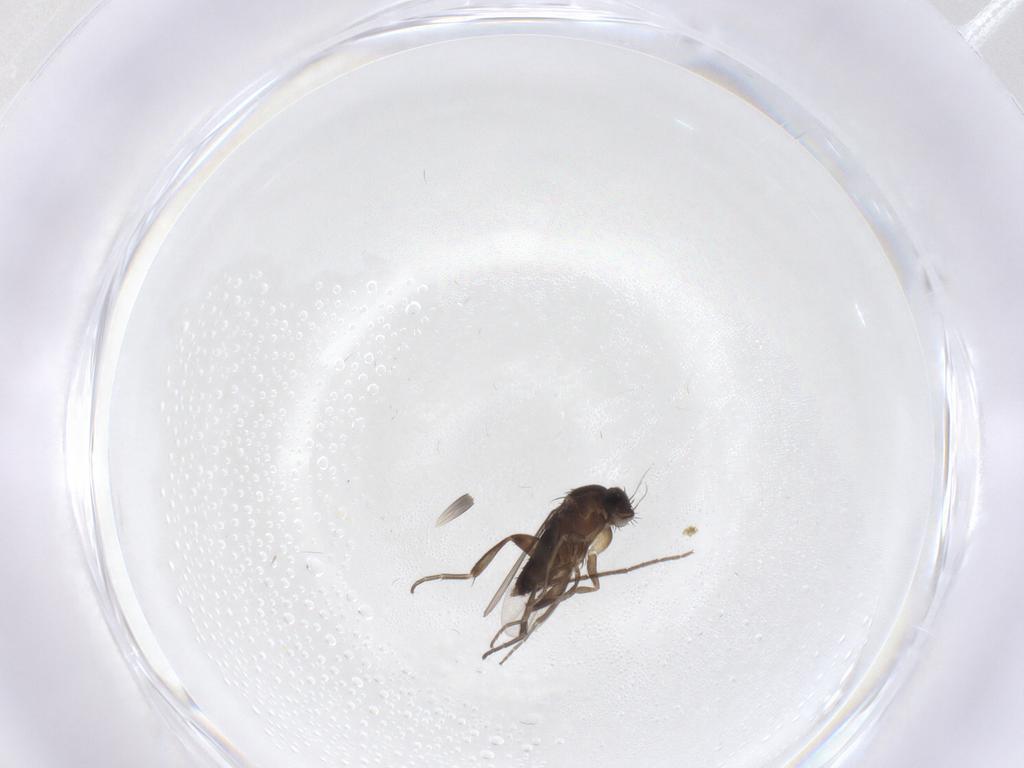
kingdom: Animalia
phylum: Arthropoda
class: Insecta
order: Diptera
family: Phoridae
